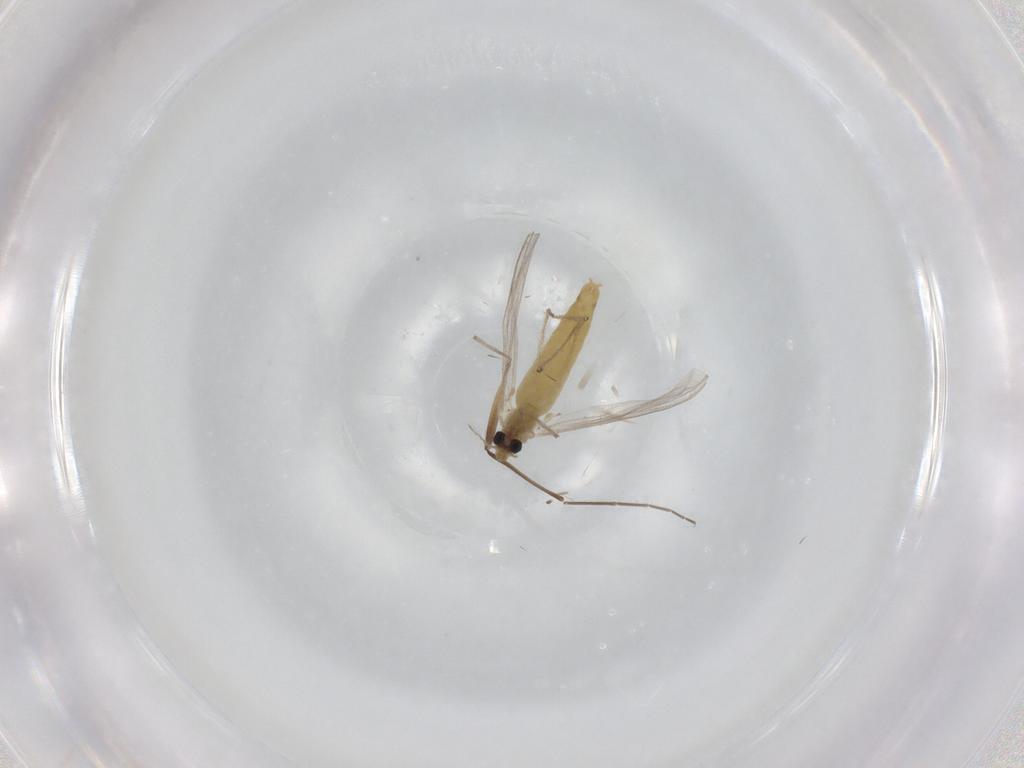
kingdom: Animalia
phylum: Arthropoda
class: Insecta
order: Diptera
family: Chironomidae
